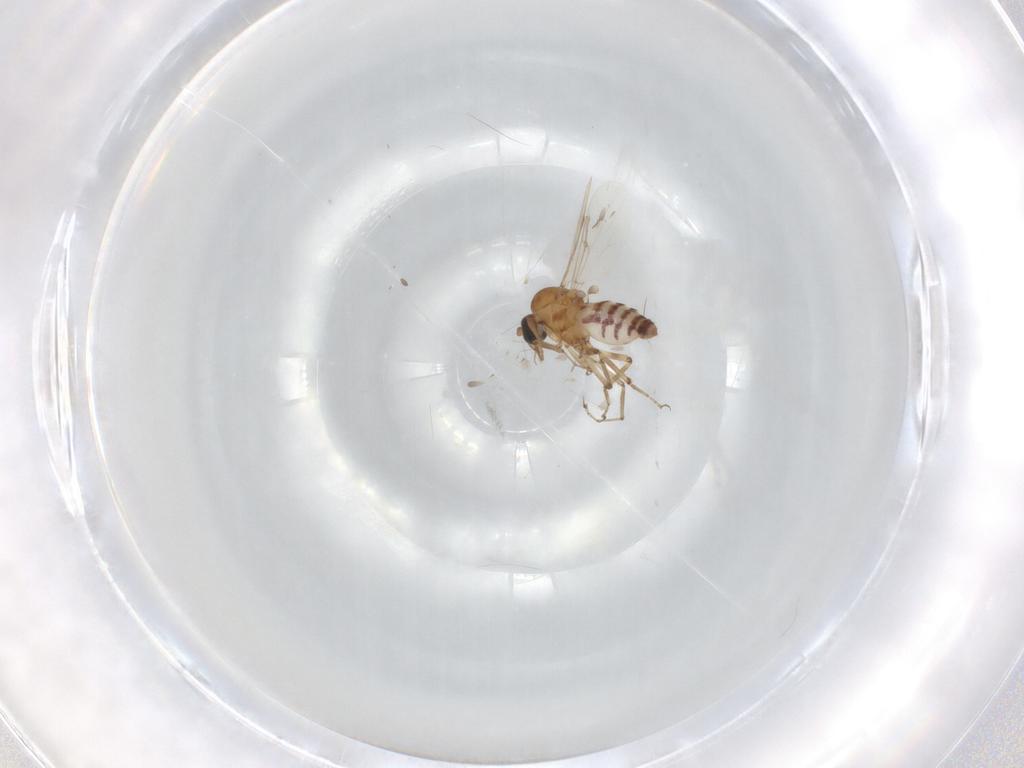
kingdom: Animalia
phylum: Arthropoda
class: Insecta
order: Diptera
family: Ceratopogonidae
